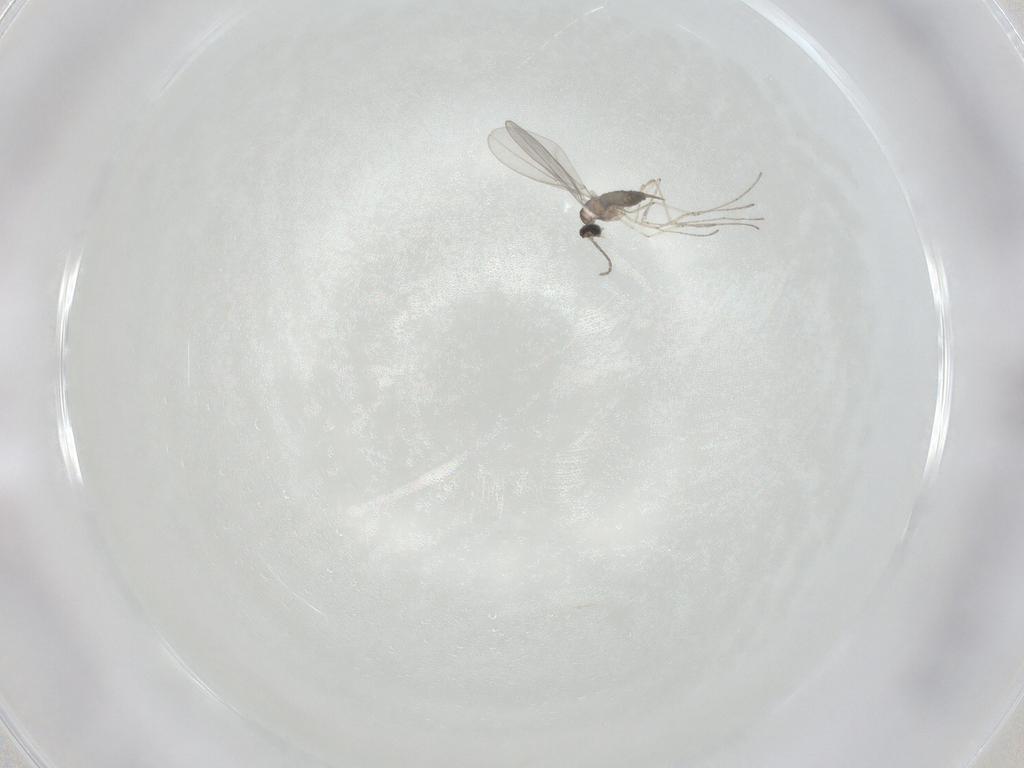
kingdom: Animalia
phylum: Arthropoda
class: Insecta
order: Diptera
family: Cecidomyiidae
